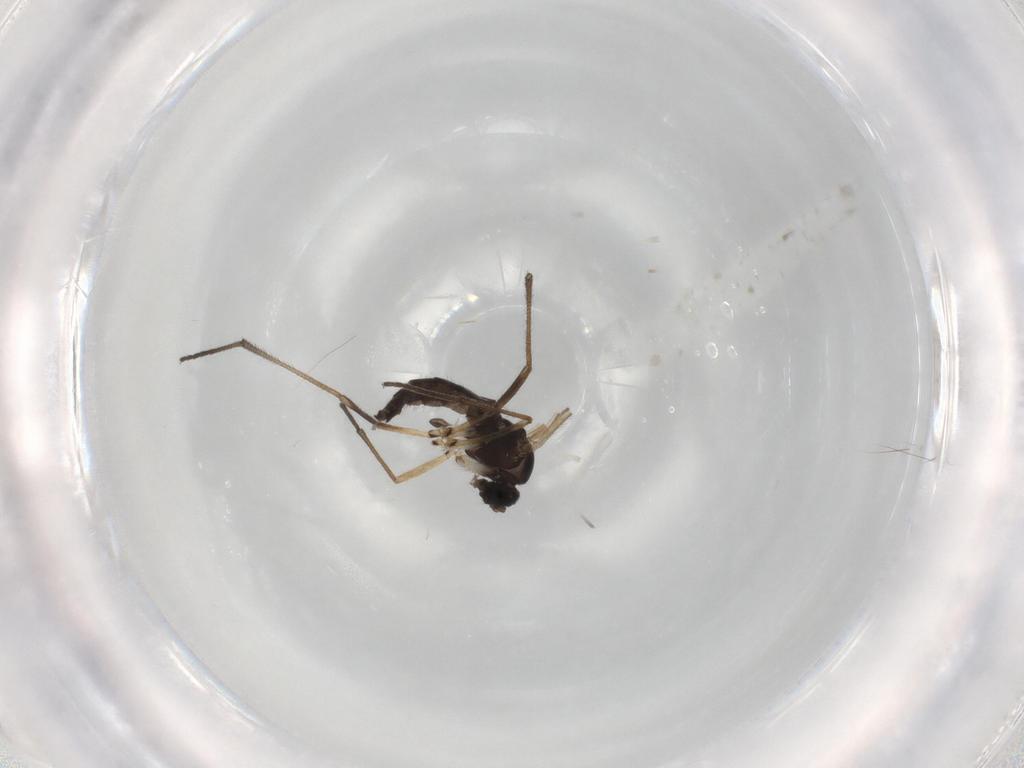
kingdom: Animalia
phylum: Arthropoda
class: Insecta
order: Diptera
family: Sciaridae
